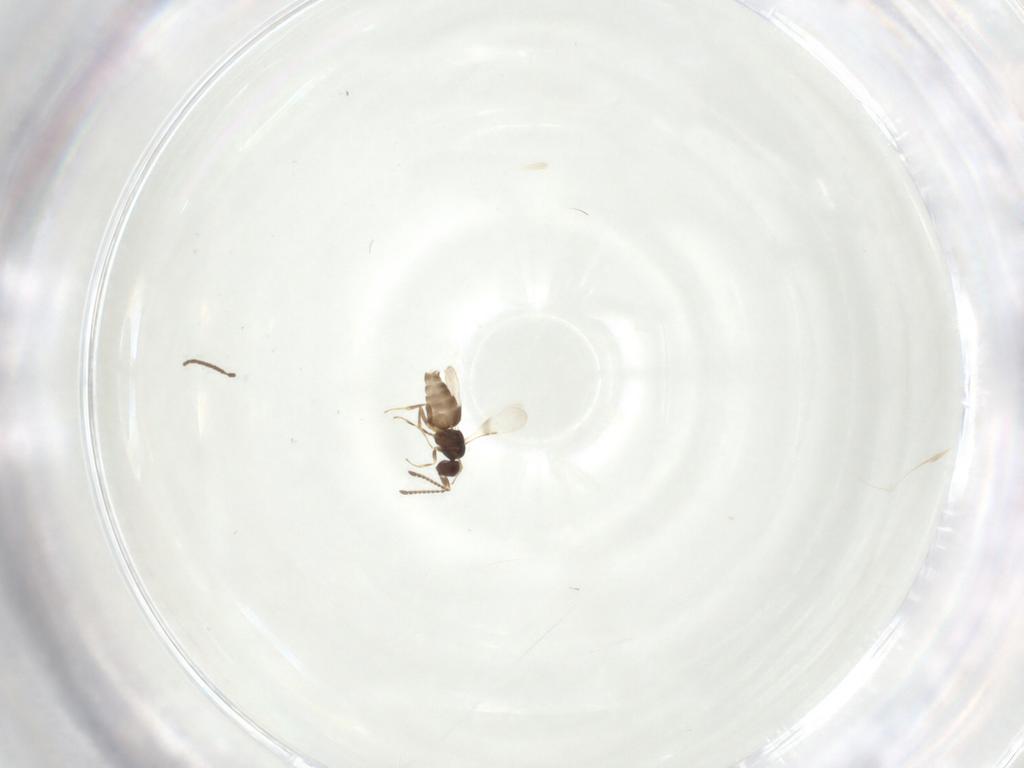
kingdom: Animalia
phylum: Arthropoda
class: Insecta
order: Hymenoptera
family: Ceraphronidae
